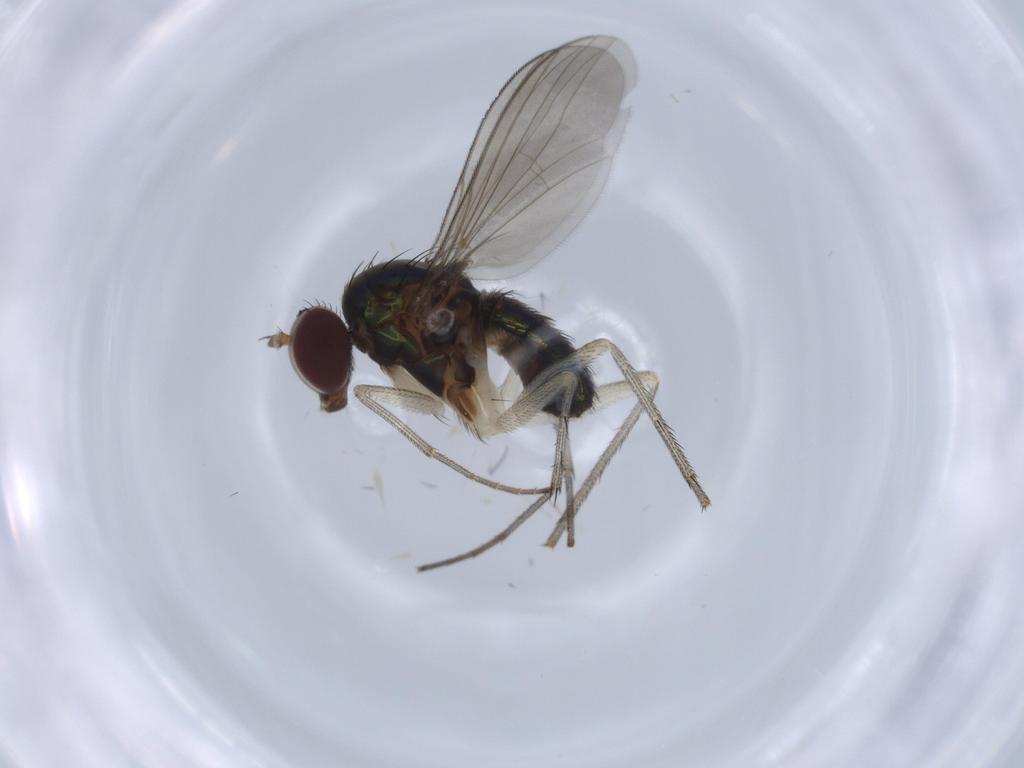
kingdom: Animalia
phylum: Arthropoda
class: Insecta
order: Diptera
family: Dolichopodidae
